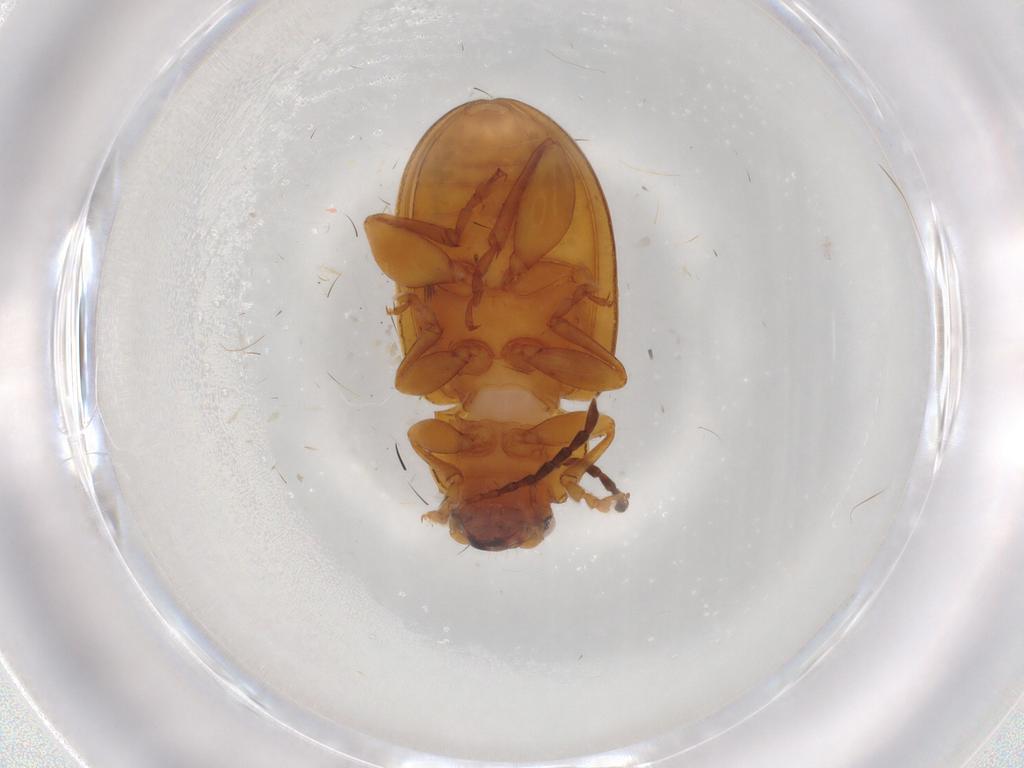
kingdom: Animalia
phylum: Arthropoda
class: Insecta
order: Coleoptera
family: Chrysomelidae
